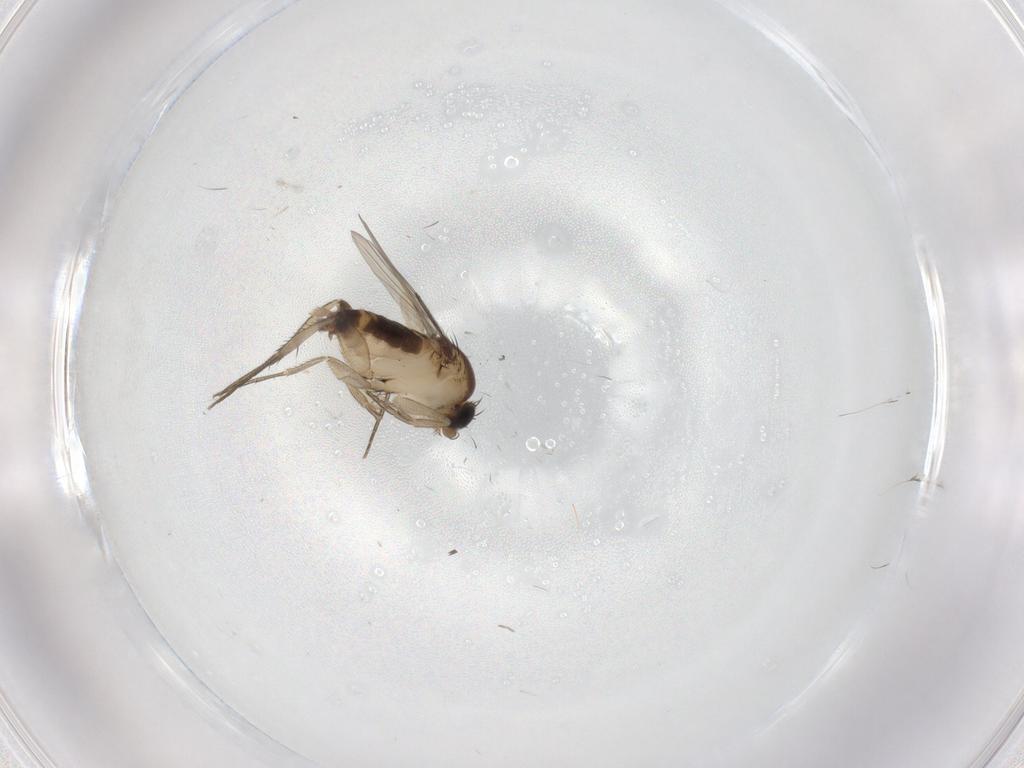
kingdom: Animalia
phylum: Arthropoda
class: Insecta
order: Diptera
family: Phoridae
